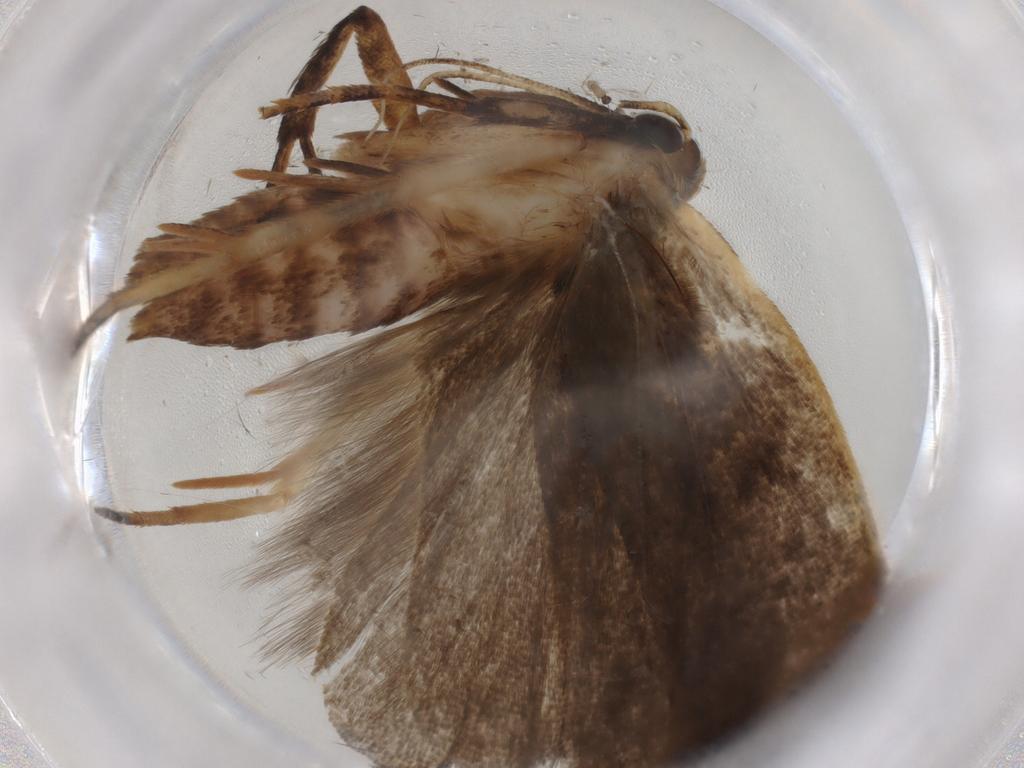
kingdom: Animalia
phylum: Arthropoda
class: Insecta
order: Lepidoptera
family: Gelechiidae
